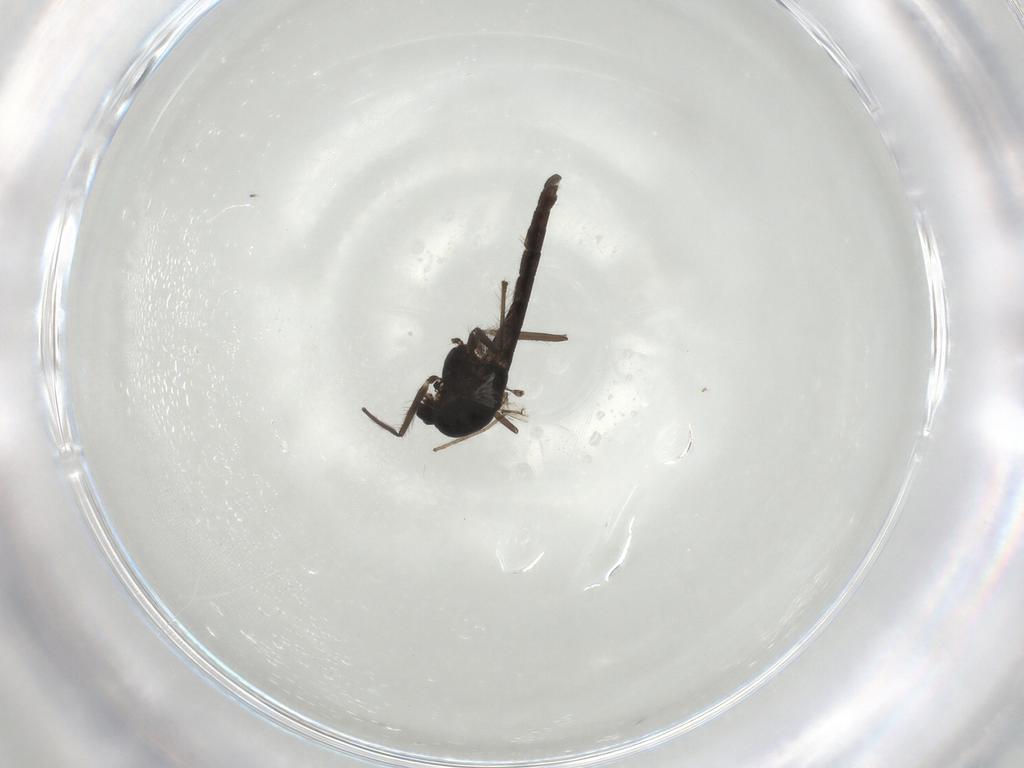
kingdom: Animalia
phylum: Arthropoda
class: Insecta
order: Diptera
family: Chironomidae
